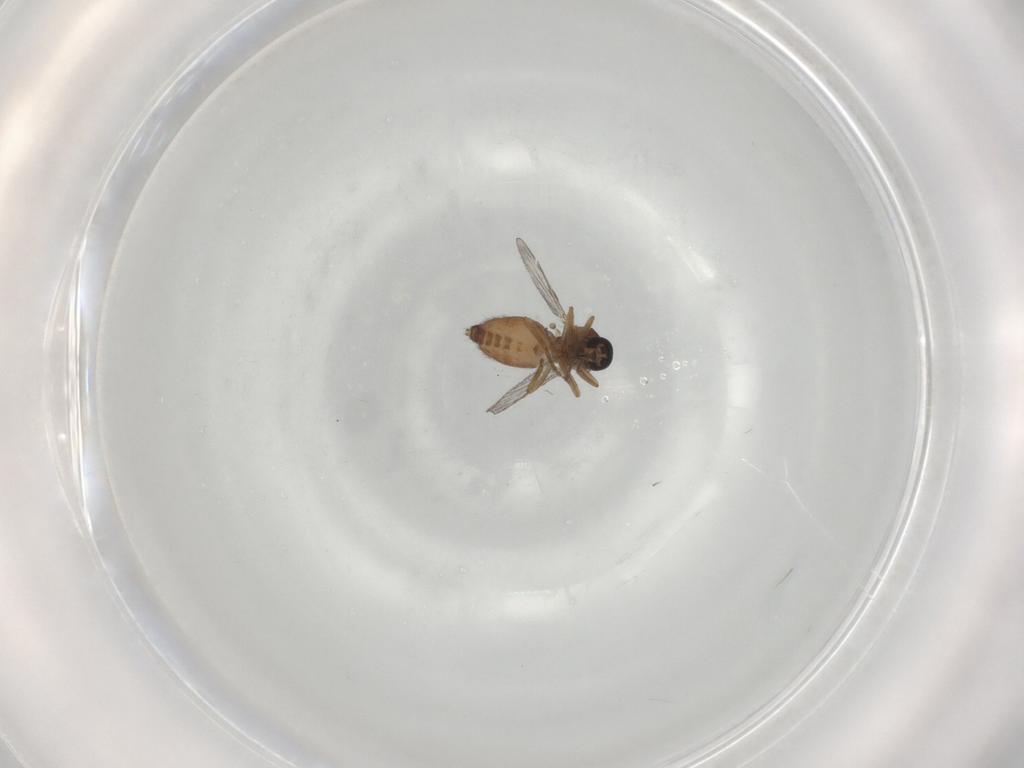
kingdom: Animalia
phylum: Arthropoda
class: Insecta
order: Diptera
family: Ceratopogonidae
